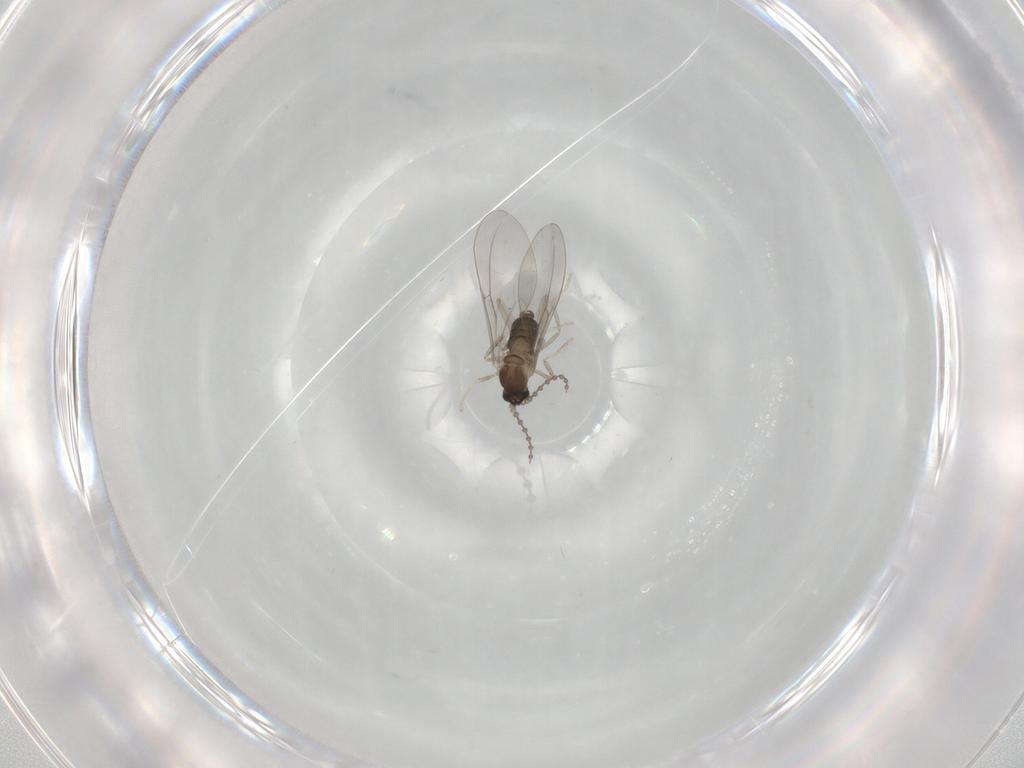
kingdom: Animalia
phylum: Arthropoda
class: Insecta
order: Diptera
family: Cecidomyiidae
